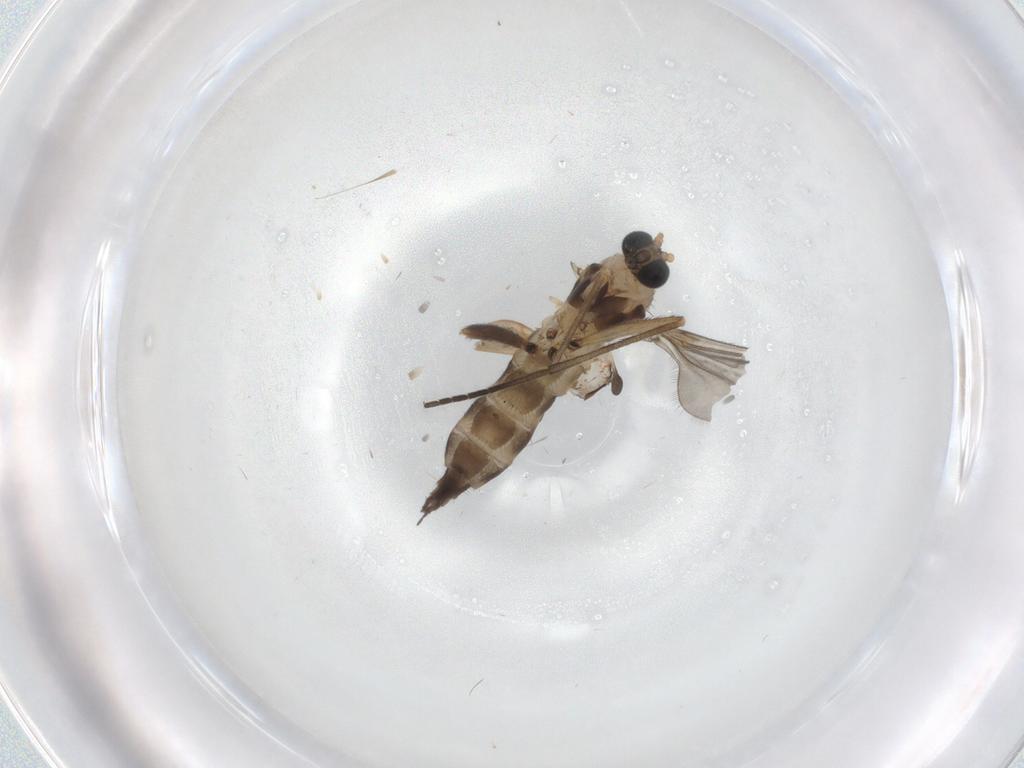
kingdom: Animalia
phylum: Arthropoda
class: Insecta
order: Diptera
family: Sciaridae
